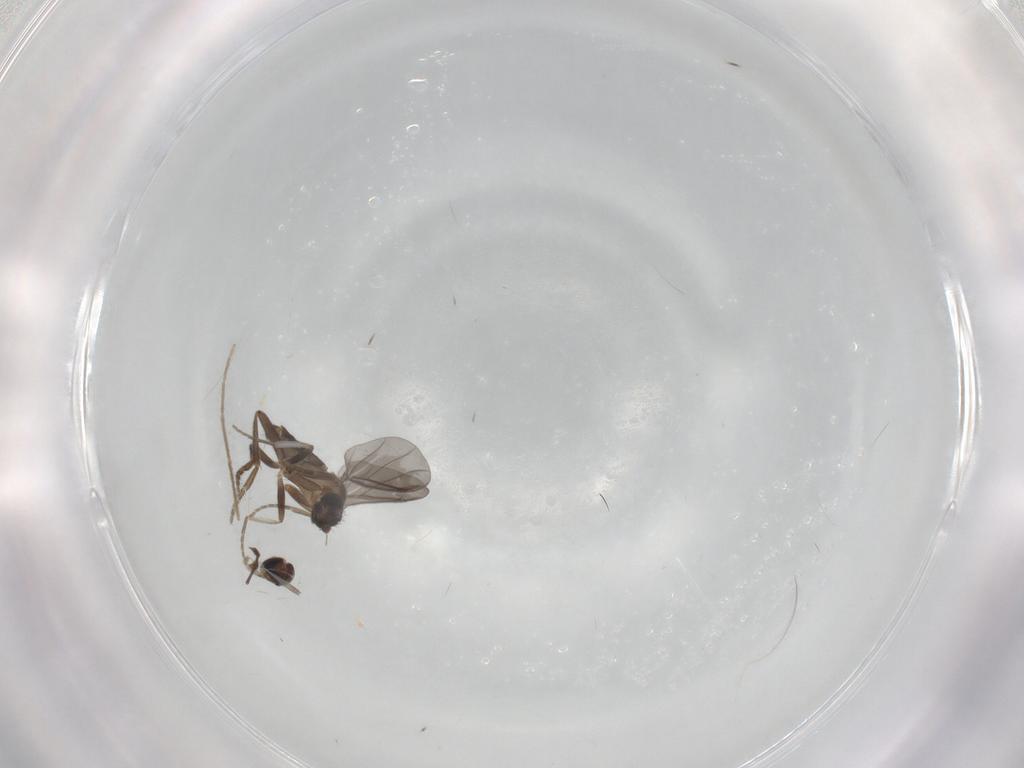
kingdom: Animalia
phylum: Arthropoda
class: Insecta
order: Diptera
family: Chironomidae
